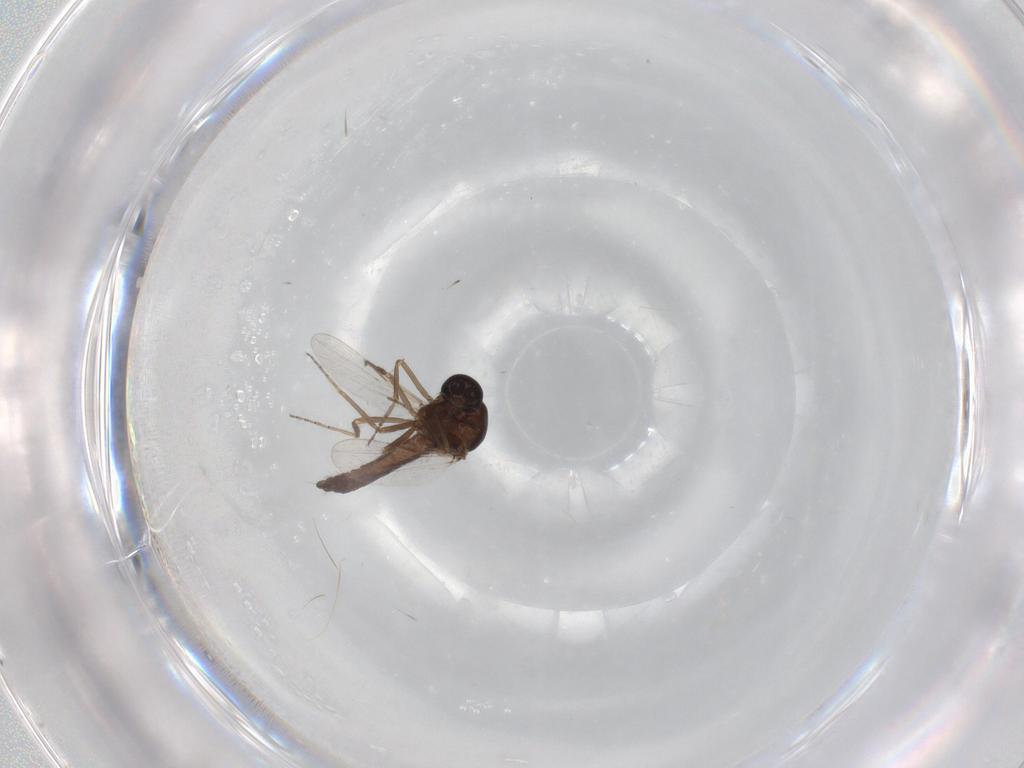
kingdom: Animalia
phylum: Arthropoda
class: Insecta
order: Diptera
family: Ceratopogonidae
